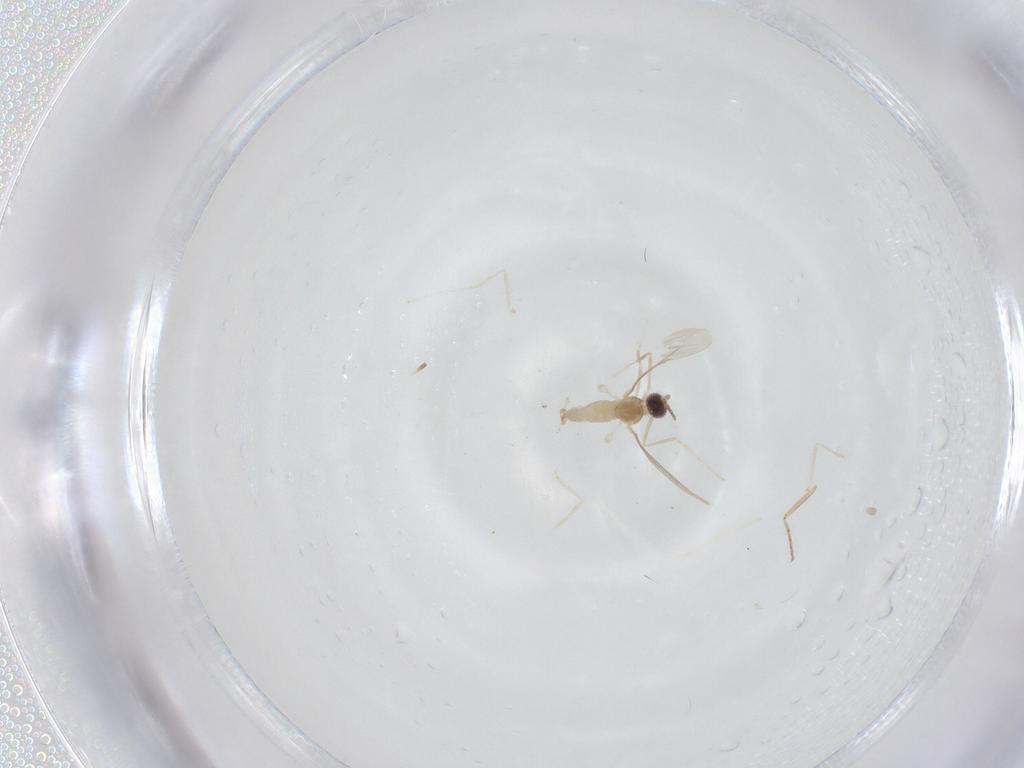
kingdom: Animalia
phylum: Arthropoda
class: Insecta
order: Diptera
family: Cecidomyiidae
